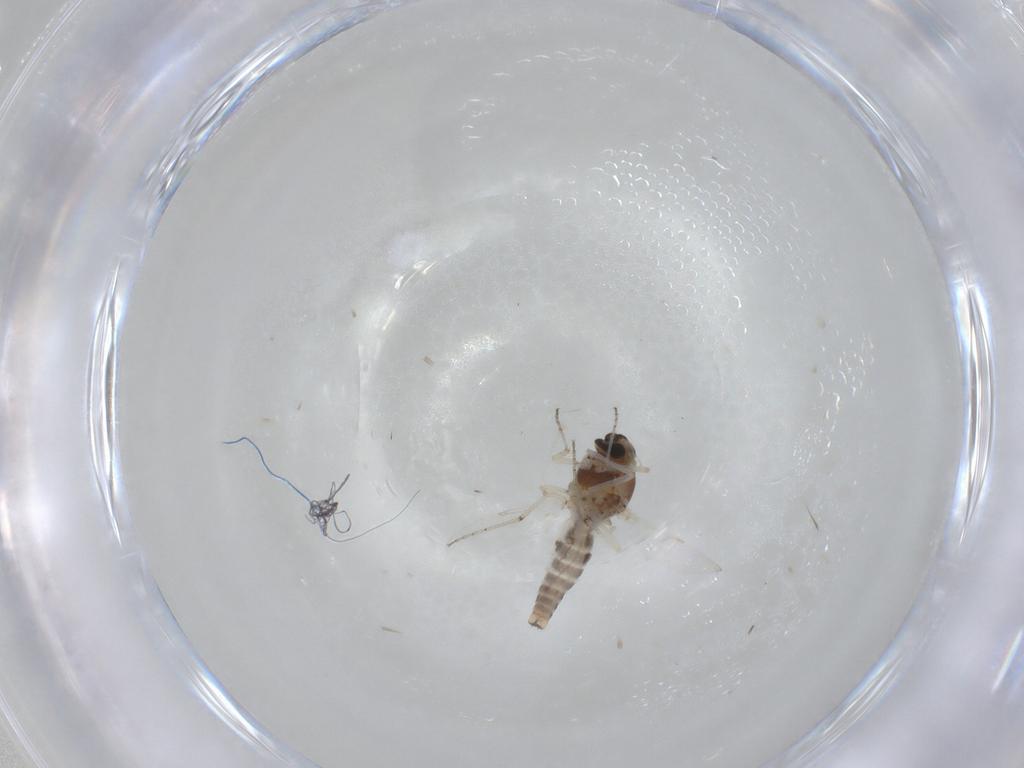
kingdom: Animalia
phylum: Arthropoda
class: Insecta
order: Diptera
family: Ceratopogonidae
